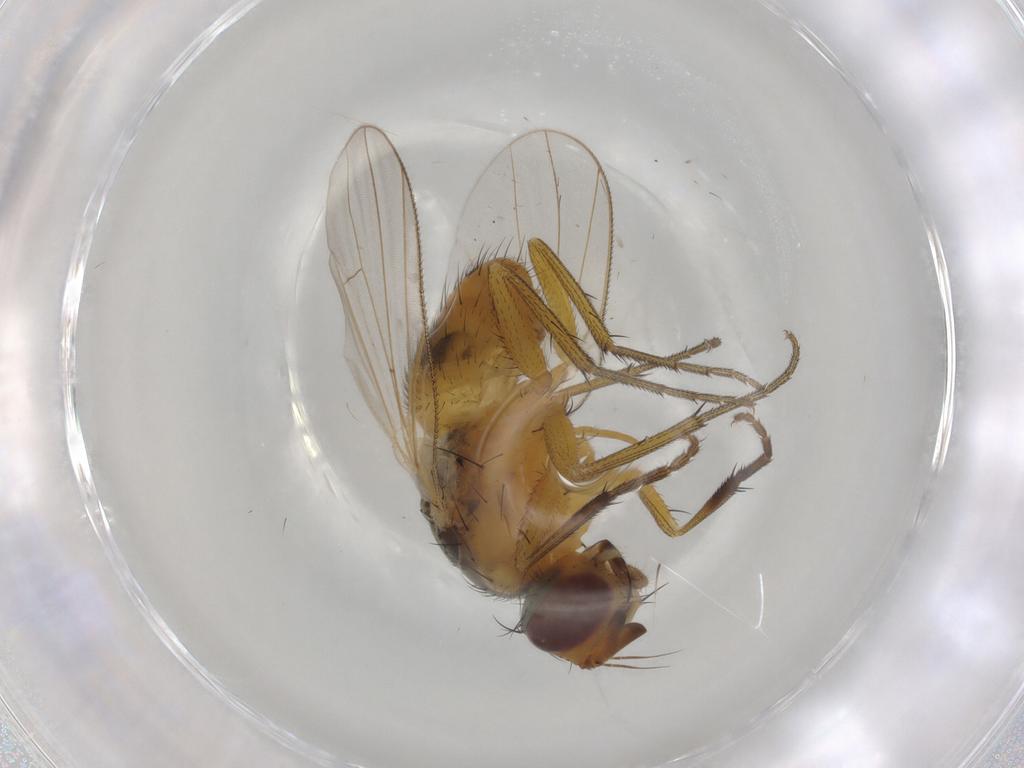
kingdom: Animalia
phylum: Arthropoda
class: Insecta
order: Diptera
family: Muscidae
